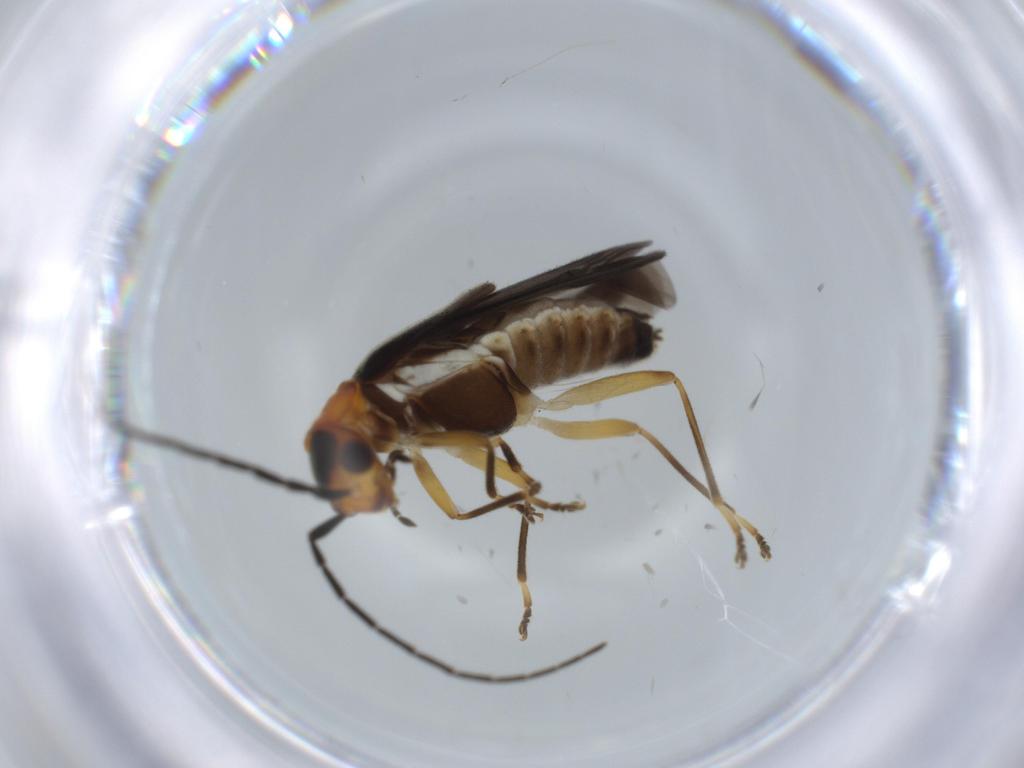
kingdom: Animalia
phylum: Arthropoda
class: Insecta
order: Coleoptera
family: Cantharidae
